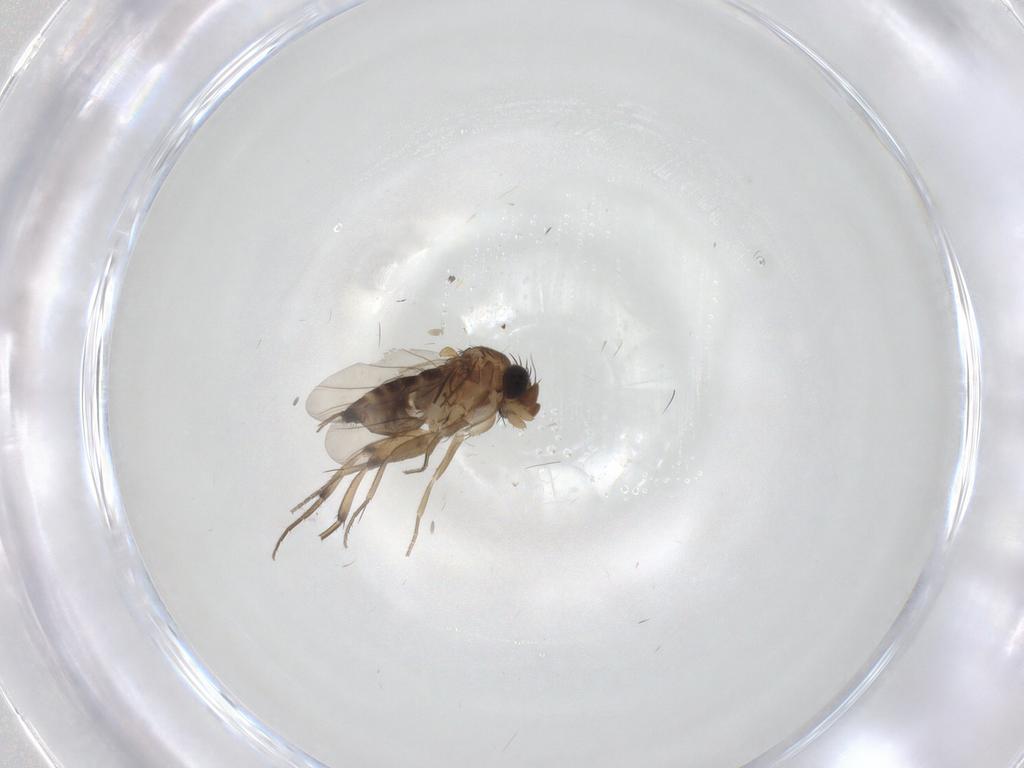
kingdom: Animalia
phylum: Arthropoda
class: Insecta
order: Diptera
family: Phoridae
